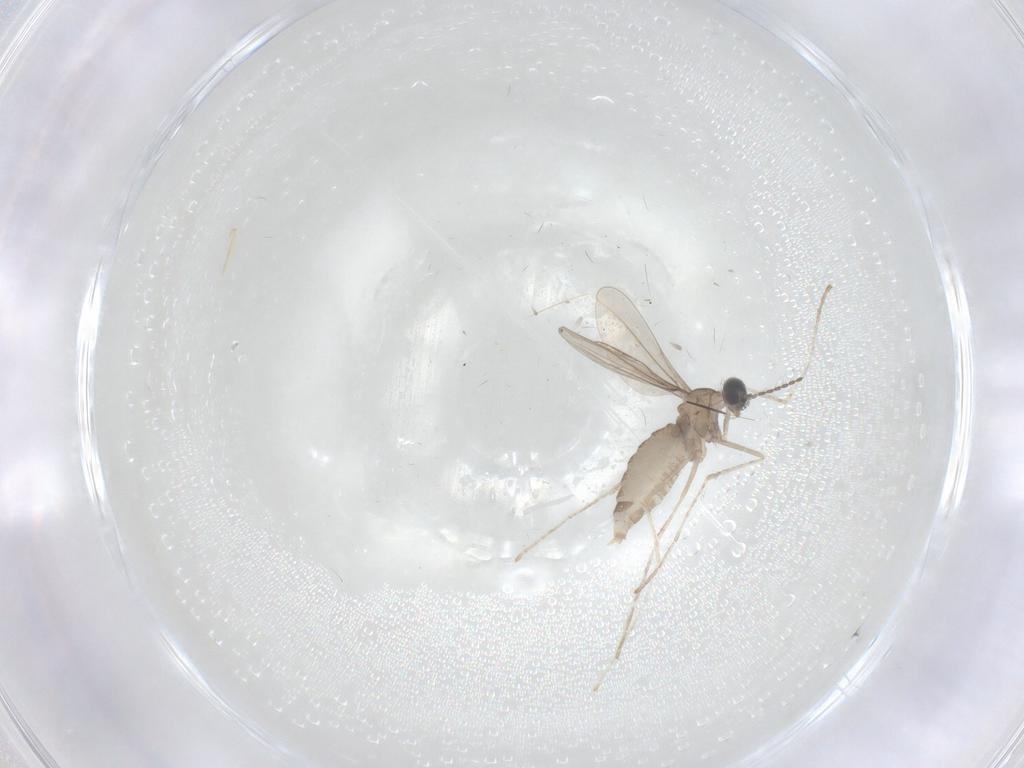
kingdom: Animalia
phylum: Arthropoda
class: Insecta
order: Diptera
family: Cecidomyiidae
